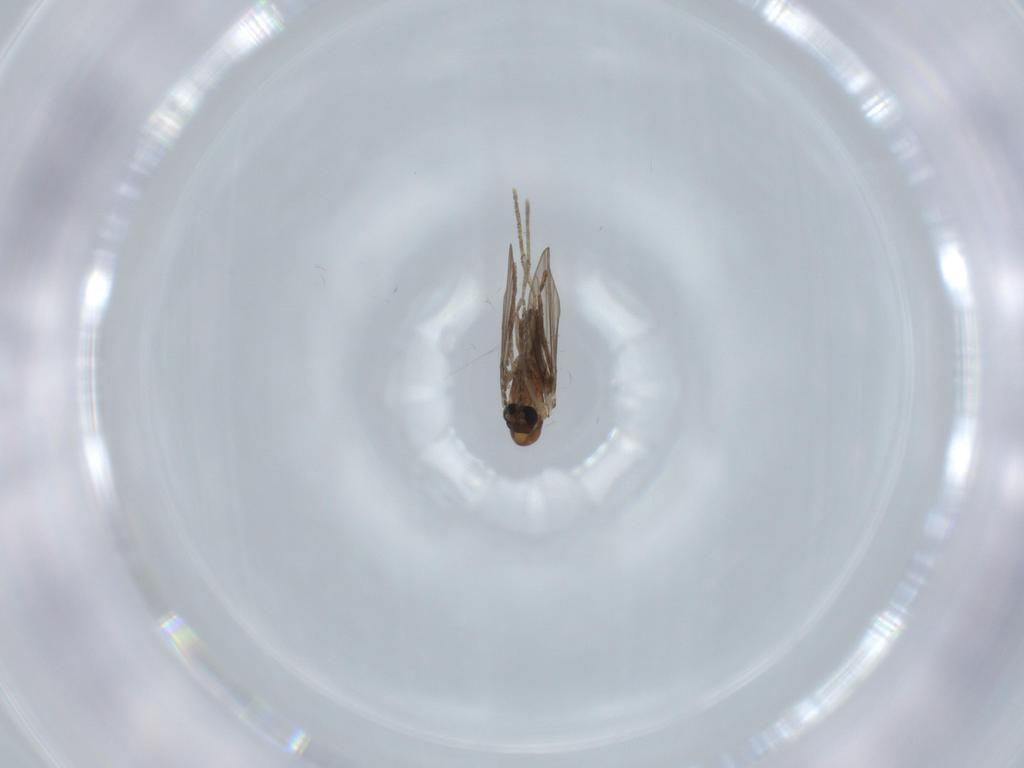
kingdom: Animalia
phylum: Arthropoda
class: Insecta
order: Diptera
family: Psychodidae
